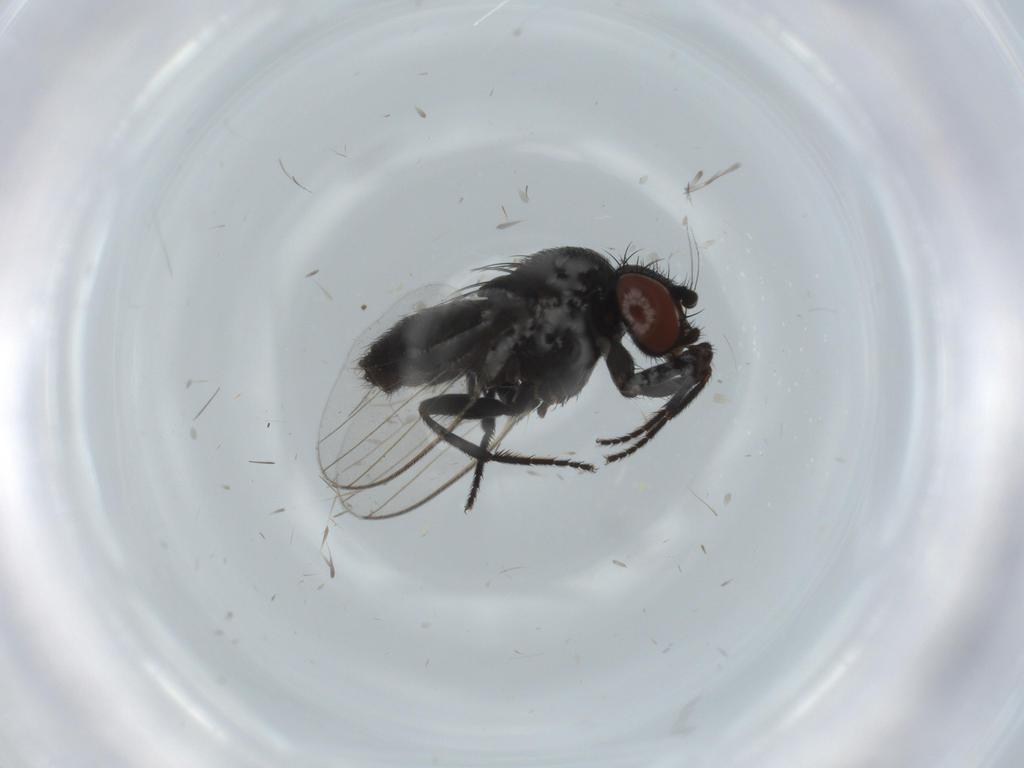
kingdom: Animalia
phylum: Arthropoda
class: Insecta
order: Diptera
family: Milichiidae
